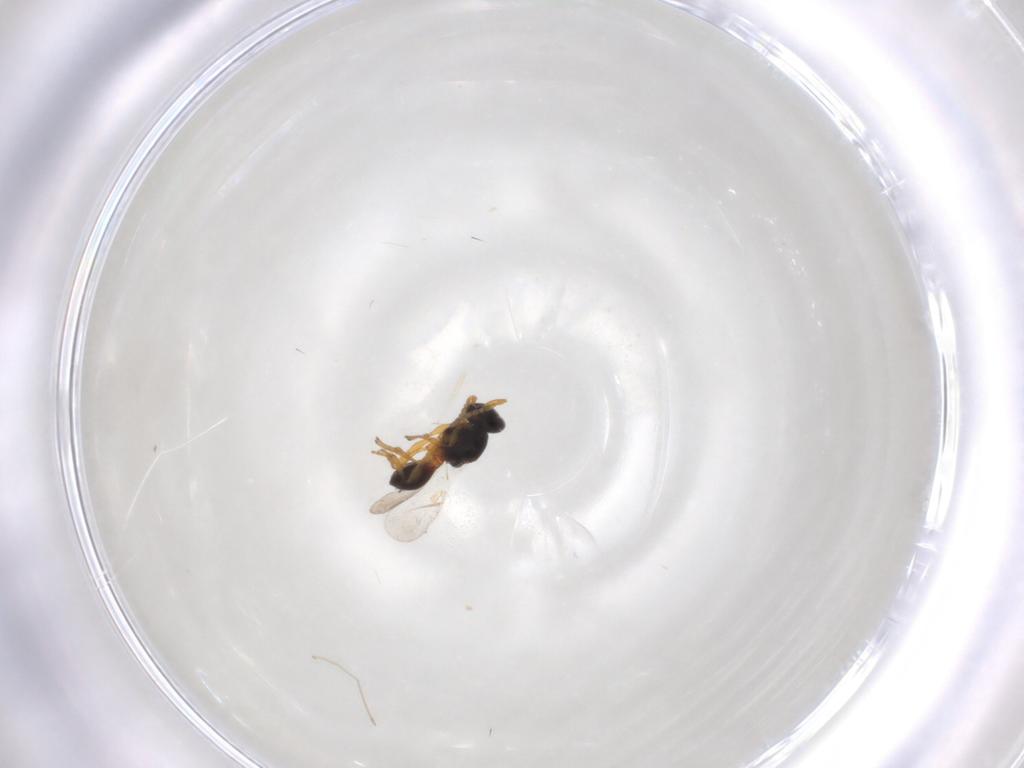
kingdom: Animalia
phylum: Arthropoda
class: Insecta
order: Hymenoptera
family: Platygastridae
